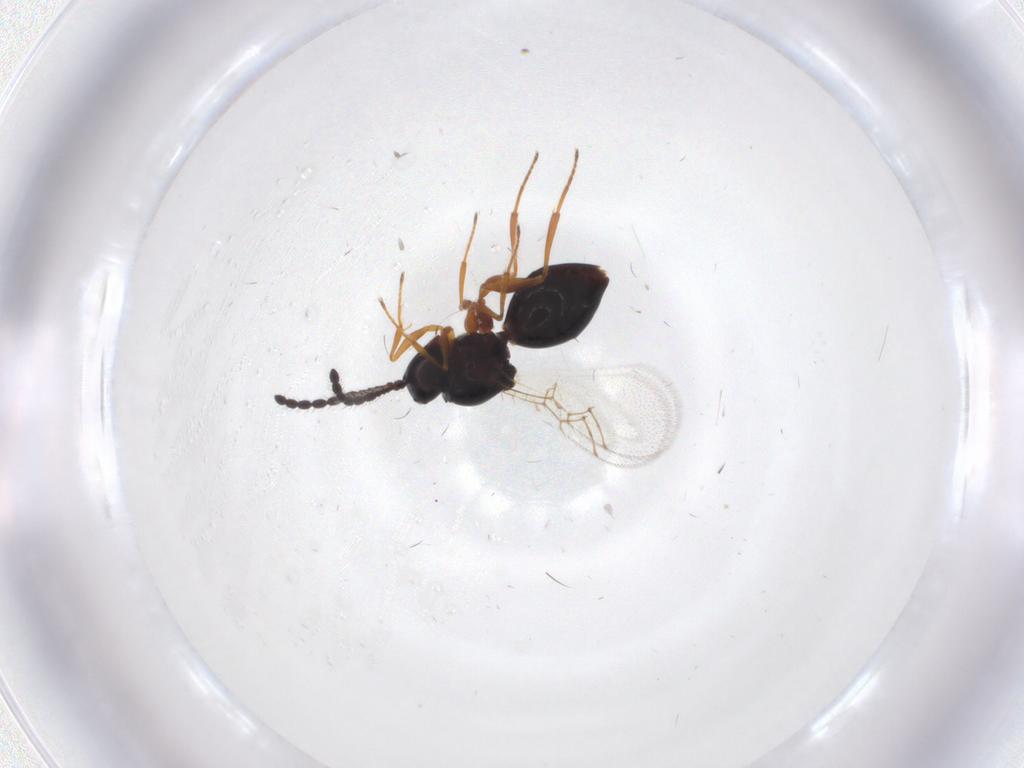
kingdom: Animalia
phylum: Arthropoda
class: Insecta
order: Hymenoptera
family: Figitidae
